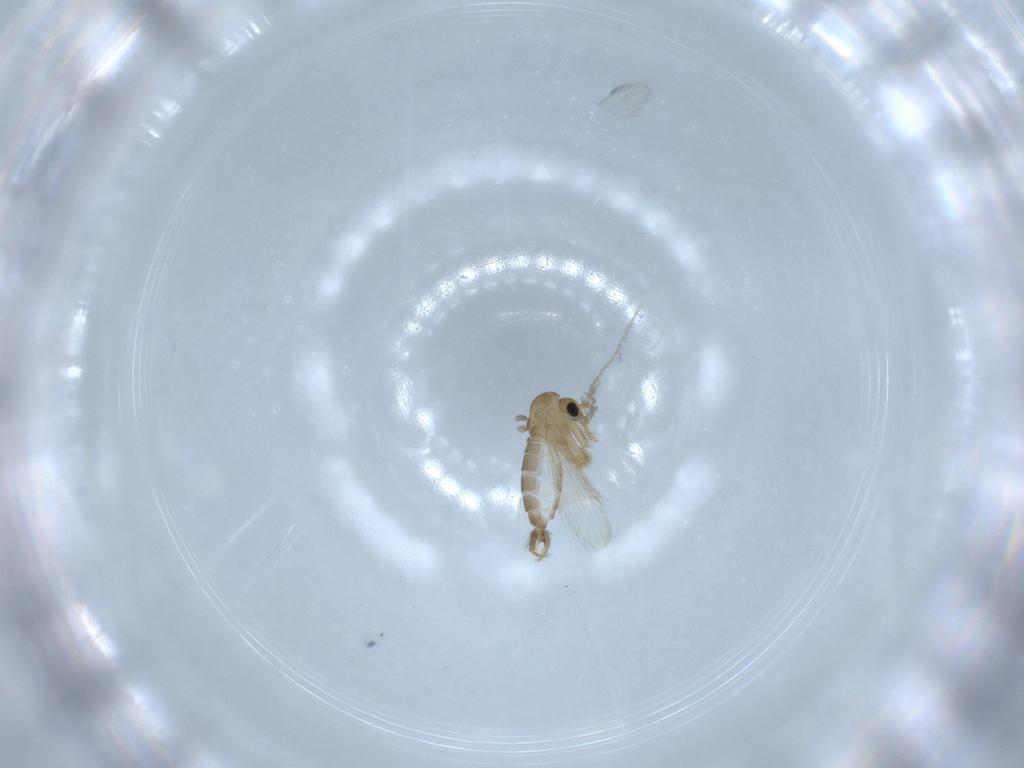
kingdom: Animalia
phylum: Arthropoda
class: Insecta
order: Diptera
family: Psychodidae
